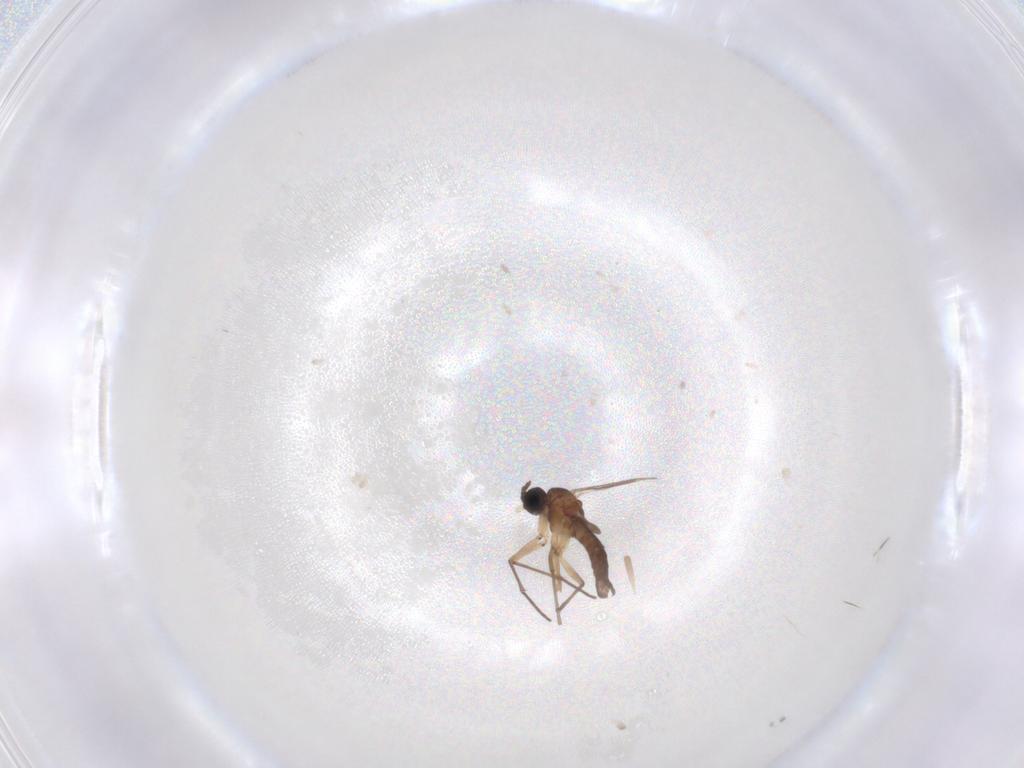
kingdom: Animalia
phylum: Arthropoda
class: Insecta
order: Diptera
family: Sciaridae
